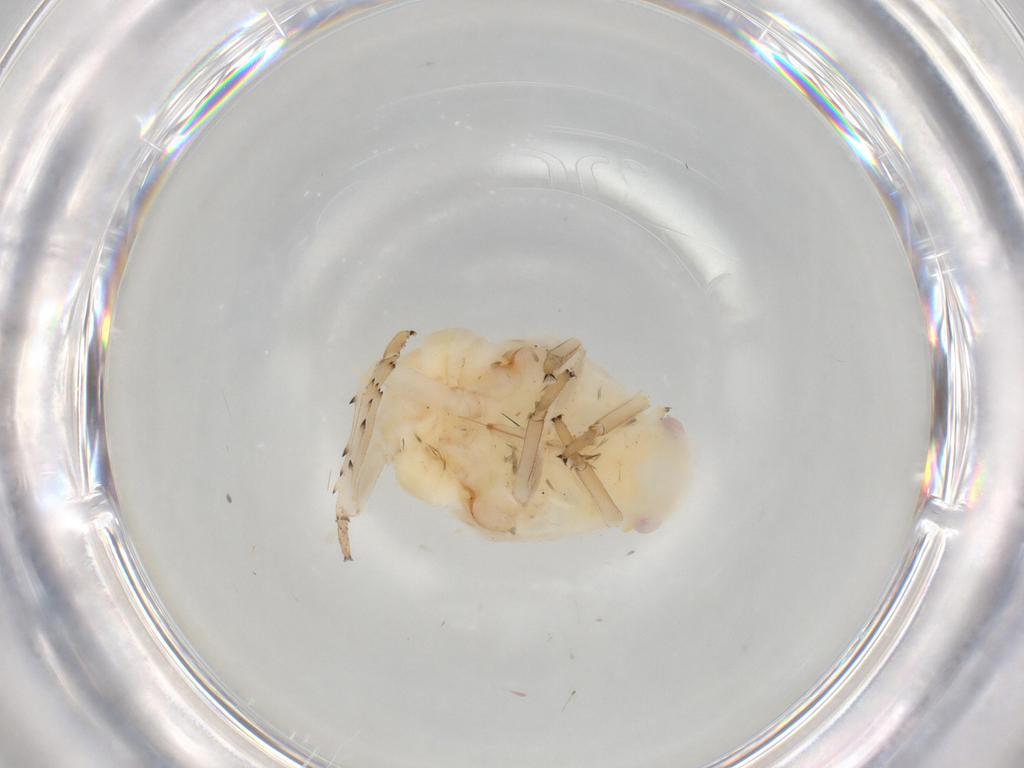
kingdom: Animalia
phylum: Arthropoda
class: Insecta
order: Hemiptera
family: Flatidae
